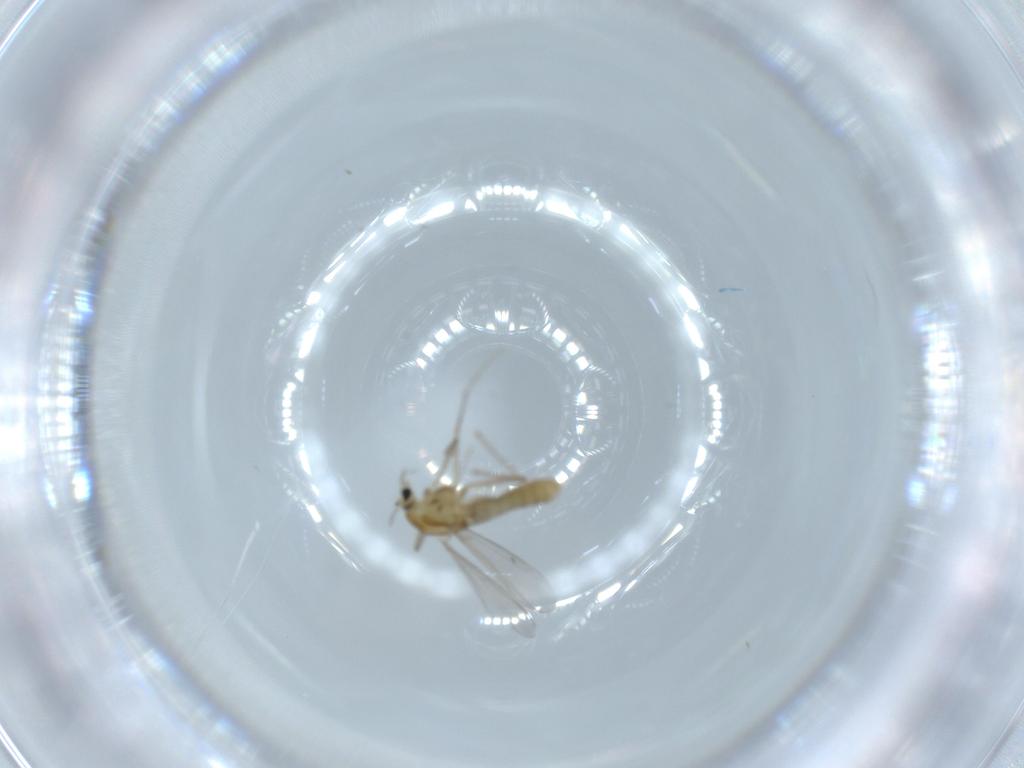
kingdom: Animalia
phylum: Arthropoda
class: Insecta
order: Diptera
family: Chironomidae
